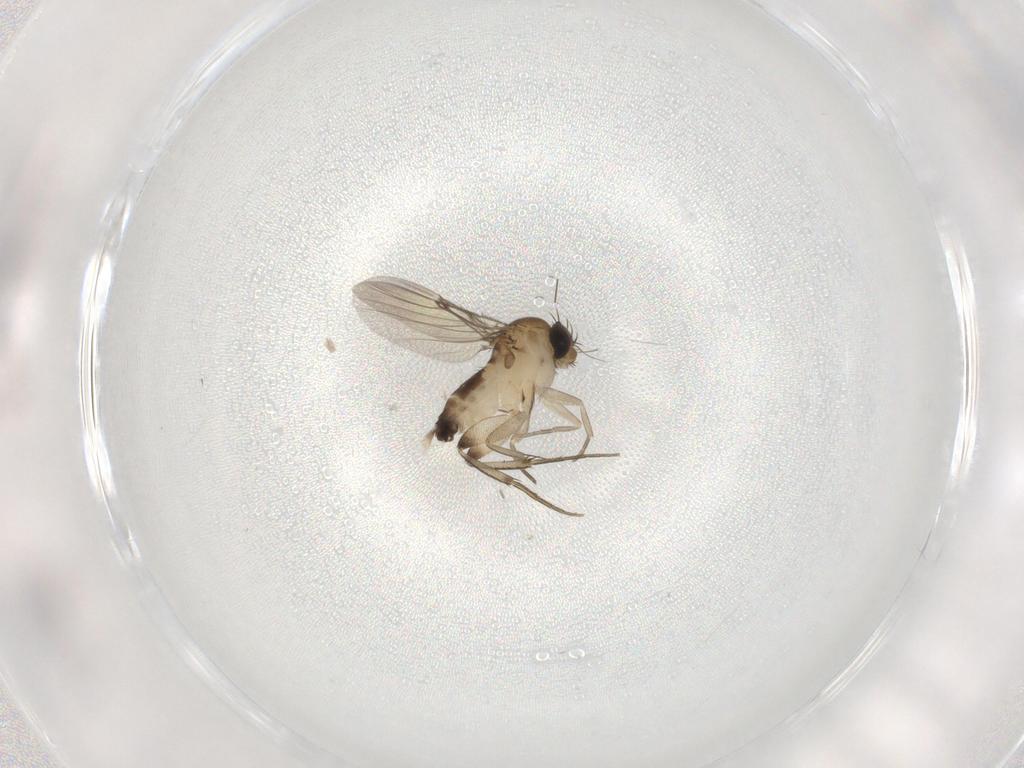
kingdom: Animalia
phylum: Arthropoda
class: Insecta
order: Diptera
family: Phoridae
